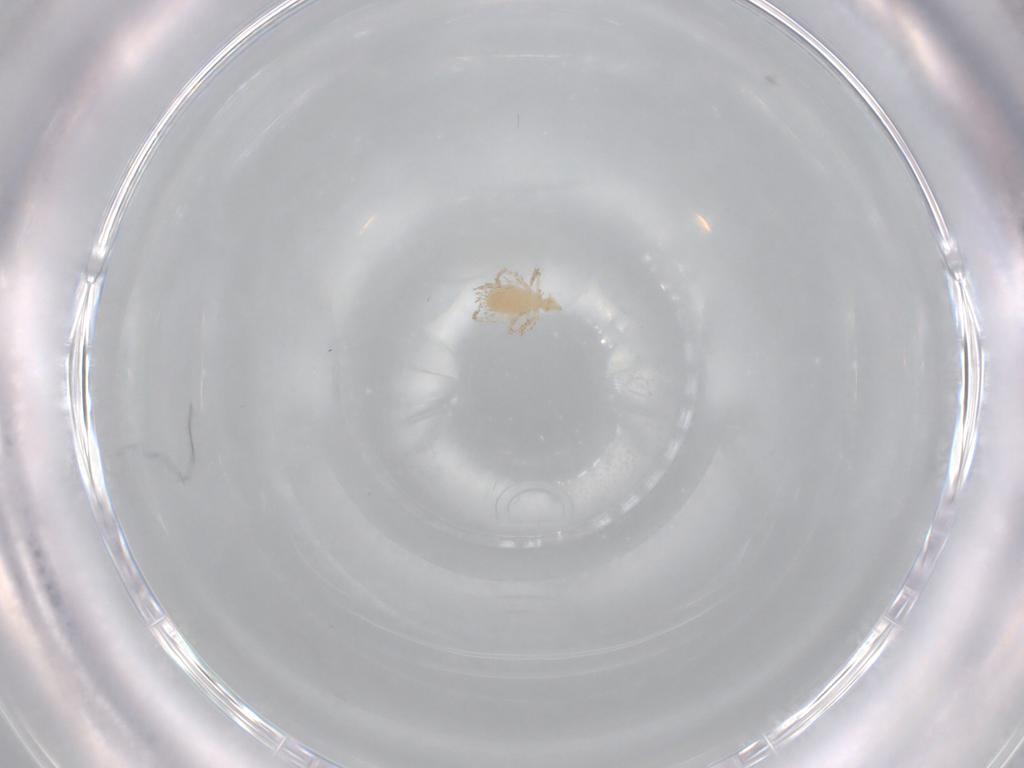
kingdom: Animalia
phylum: Arthropoda
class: Arachnida
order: Trombidiformes
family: Erythraeidae
